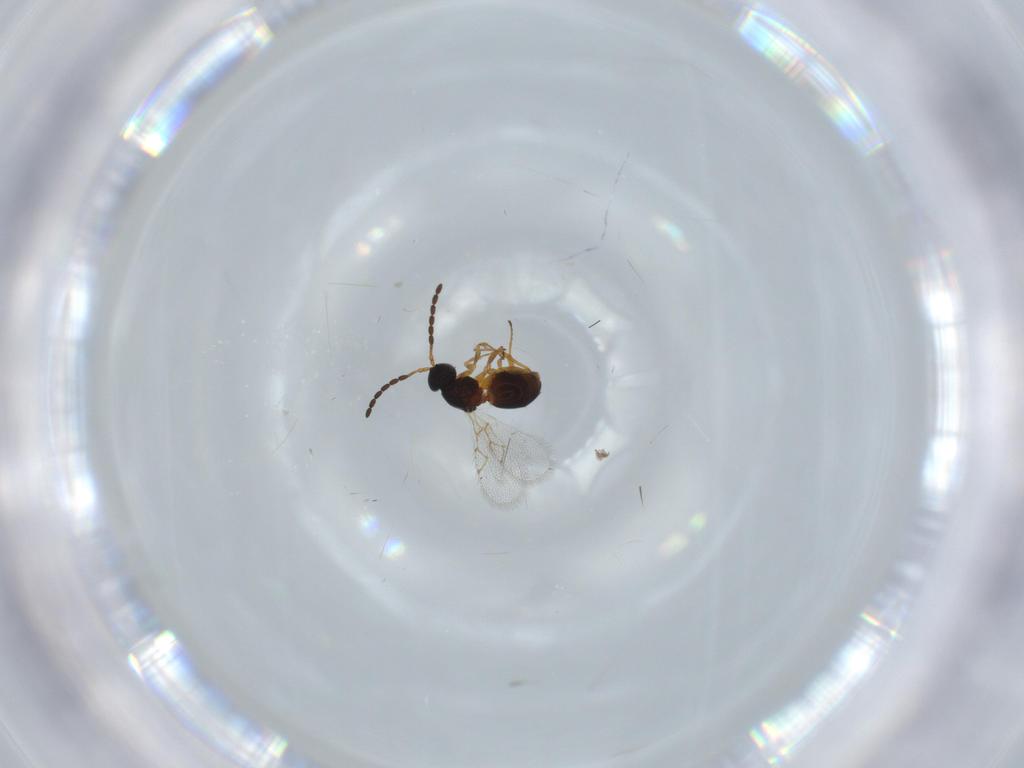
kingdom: Animalia
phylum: Arthropoda
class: Insecta
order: Hymenoptera
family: Figitidae
